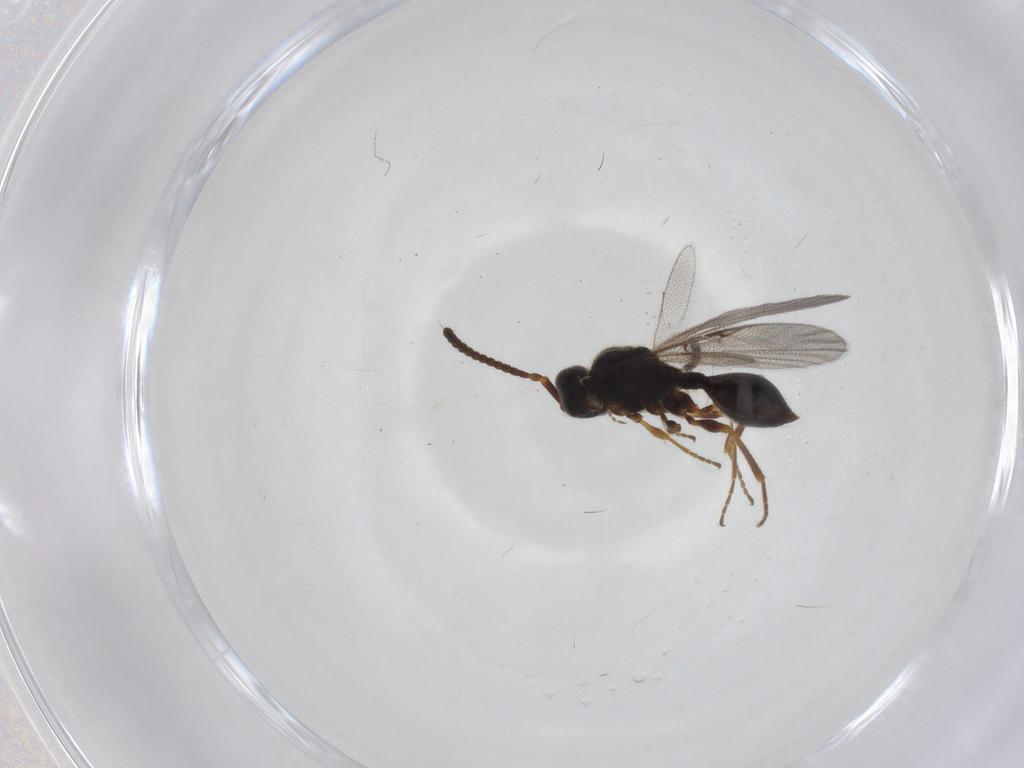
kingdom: Animalia
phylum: Arthropoda
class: Insecta
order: Hymenoptera
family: Diapriidae
